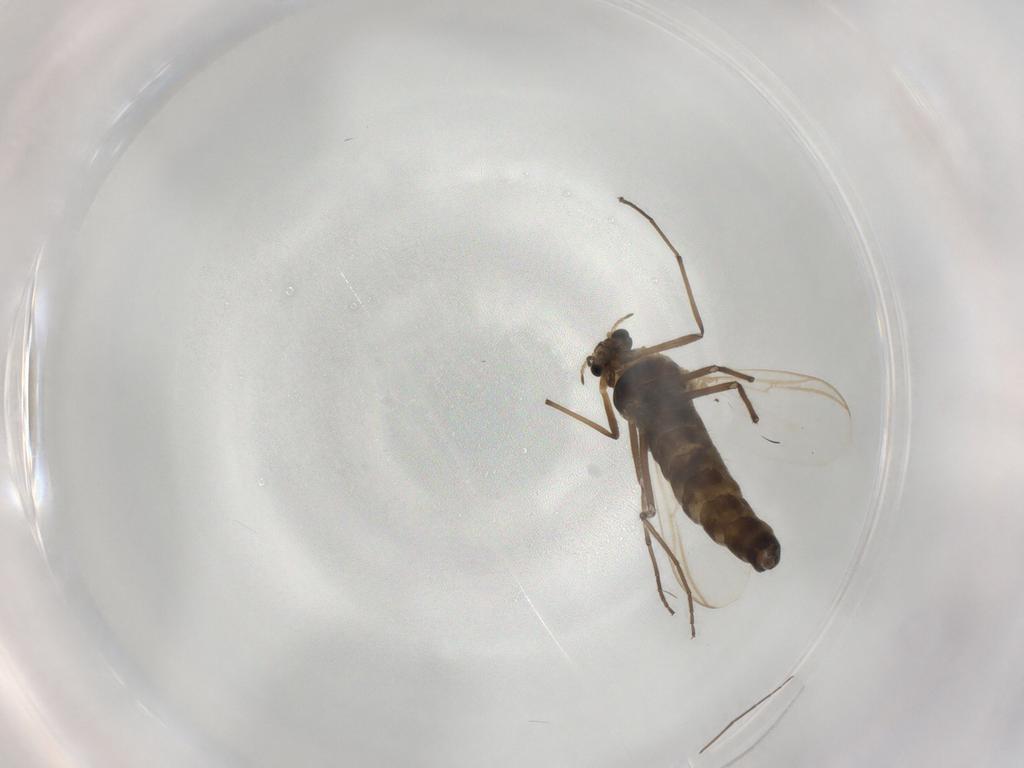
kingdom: Animalia
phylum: Arthropoda
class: Insecta
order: Diptera
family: Chironomidae
